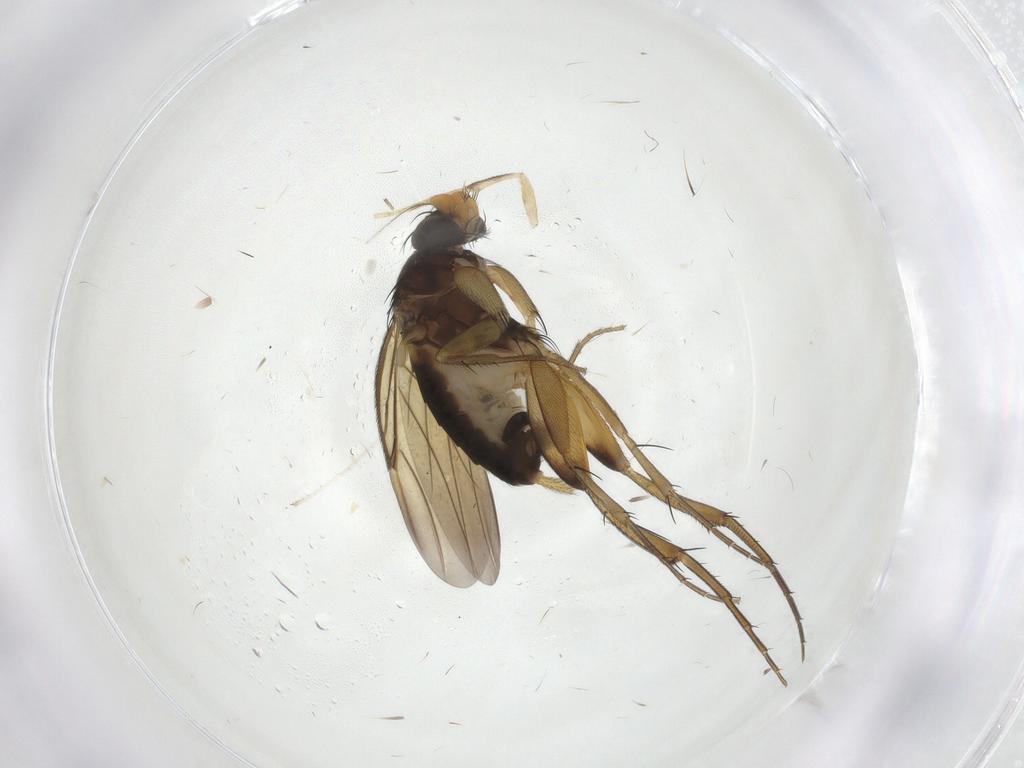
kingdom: Animalia
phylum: Arthropoda
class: Insecta
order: Diptera
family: Phoridae
